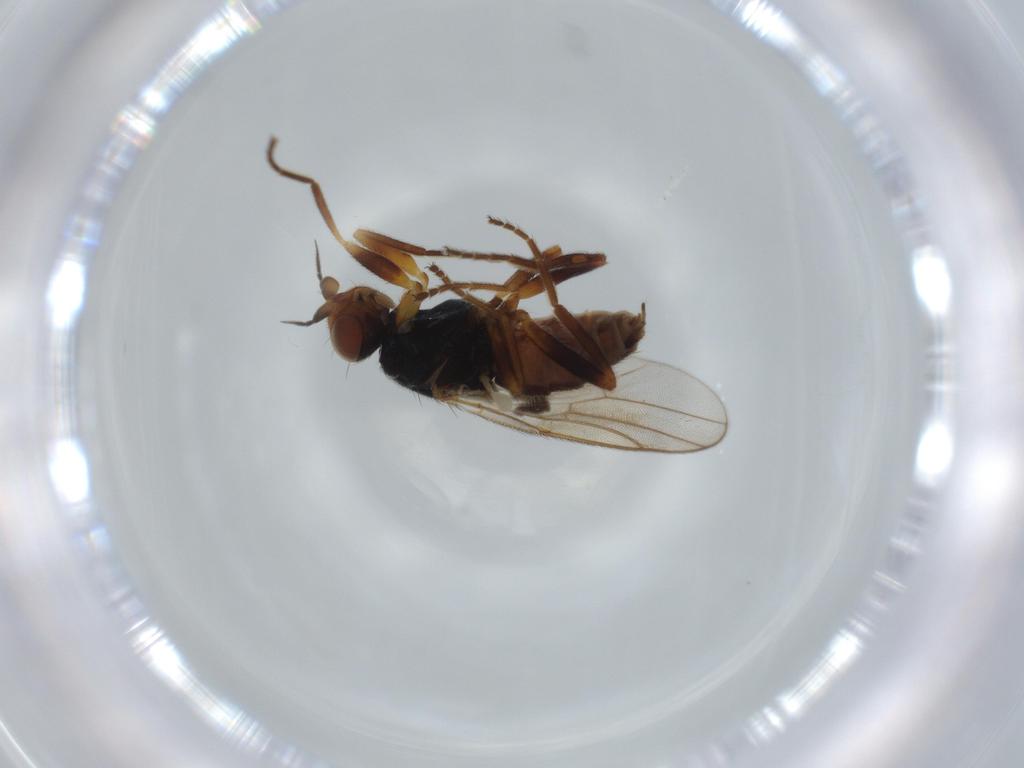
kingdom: Animalia
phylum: Arthropoda
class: Insecta
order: Diptera
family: Chloropidae
